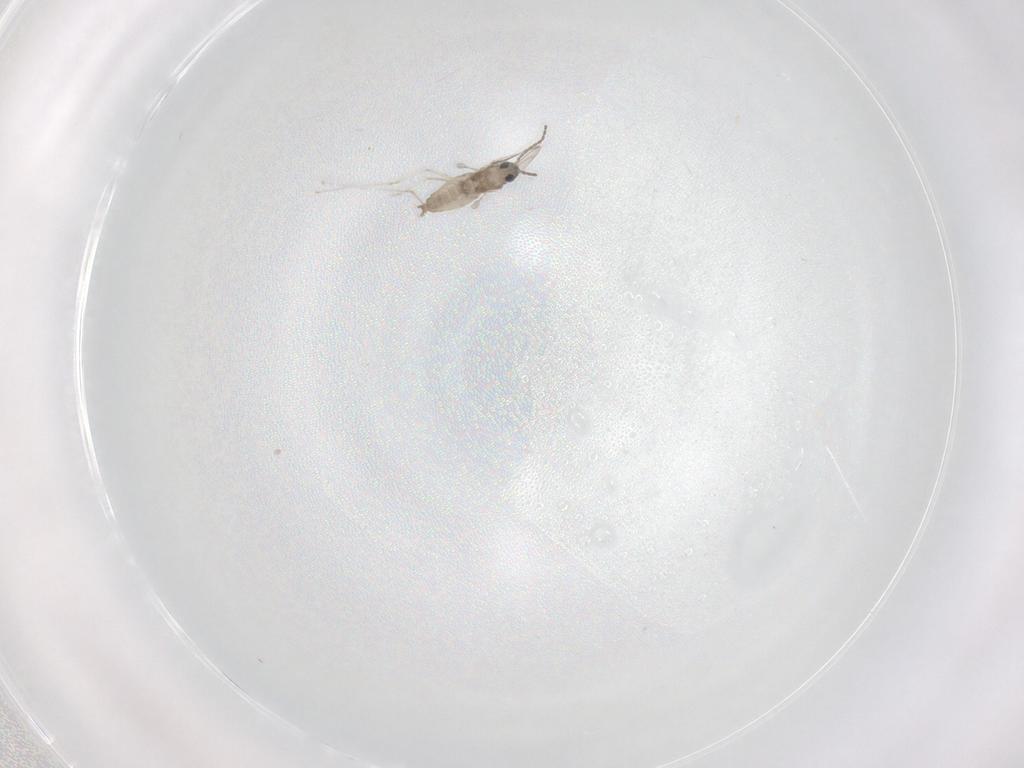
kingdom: Animalia
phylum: Arthropoda
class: Insecta
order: Diptera
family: Cecidomyiidae
